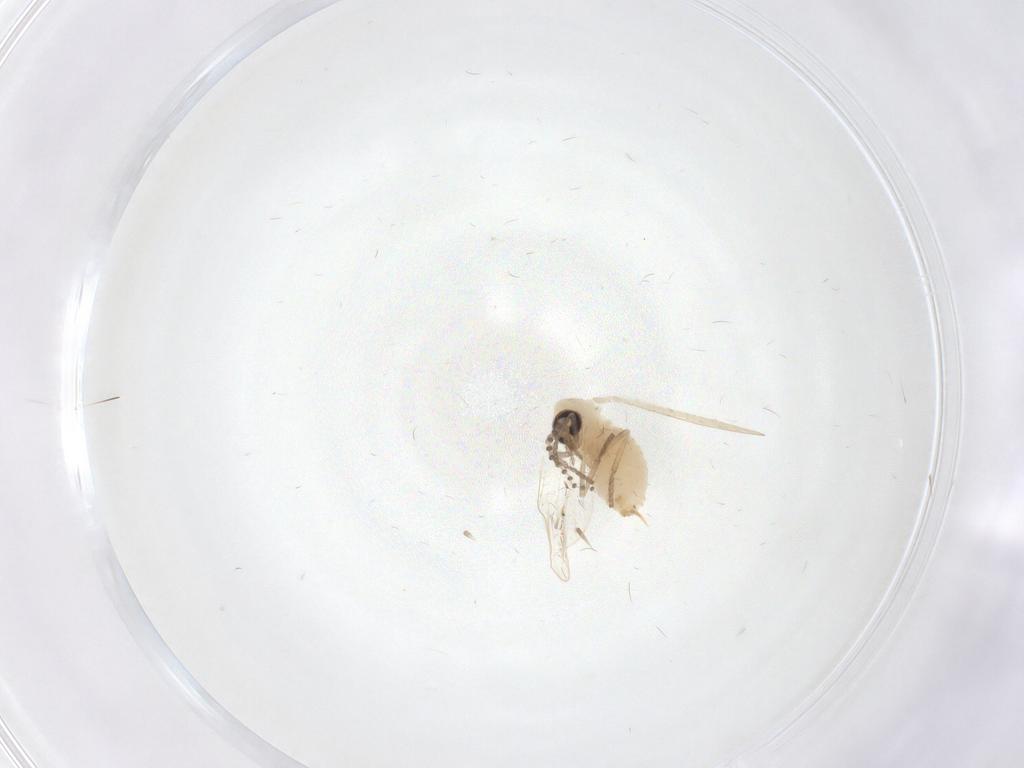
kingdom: Animalia
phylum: Arthropoda
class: Insecta
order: Diptera
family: Psychodidae
